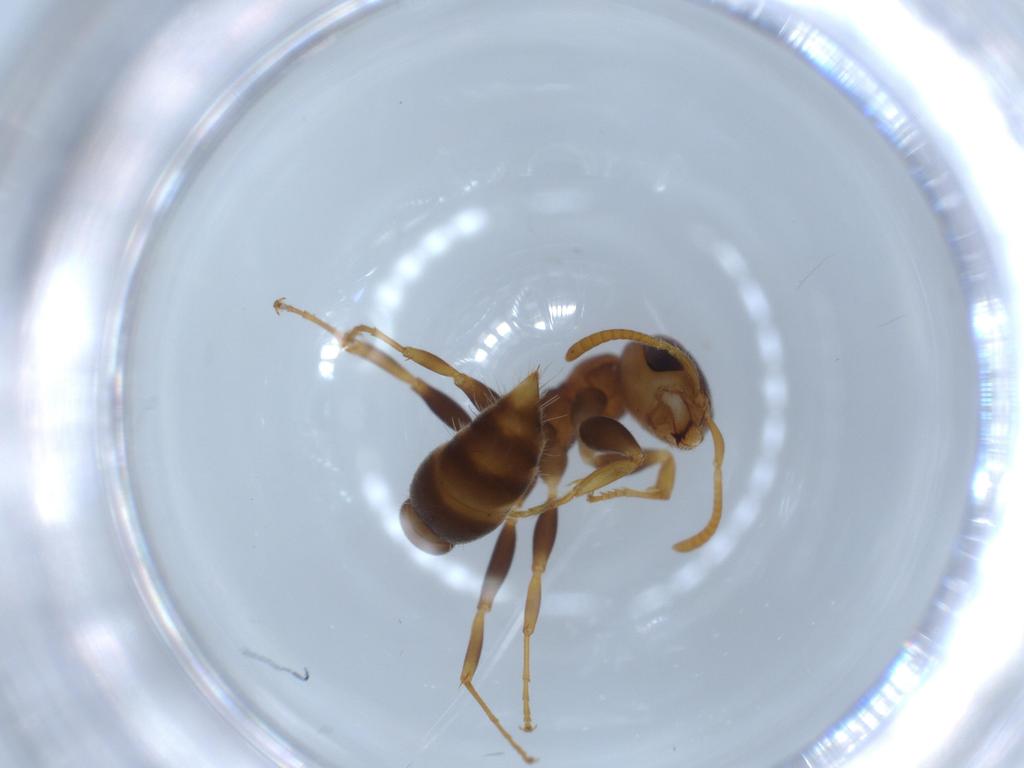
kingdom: Animalia
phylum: Arthropoda
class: Insecta
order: Hymenoptera
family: Formicidae
